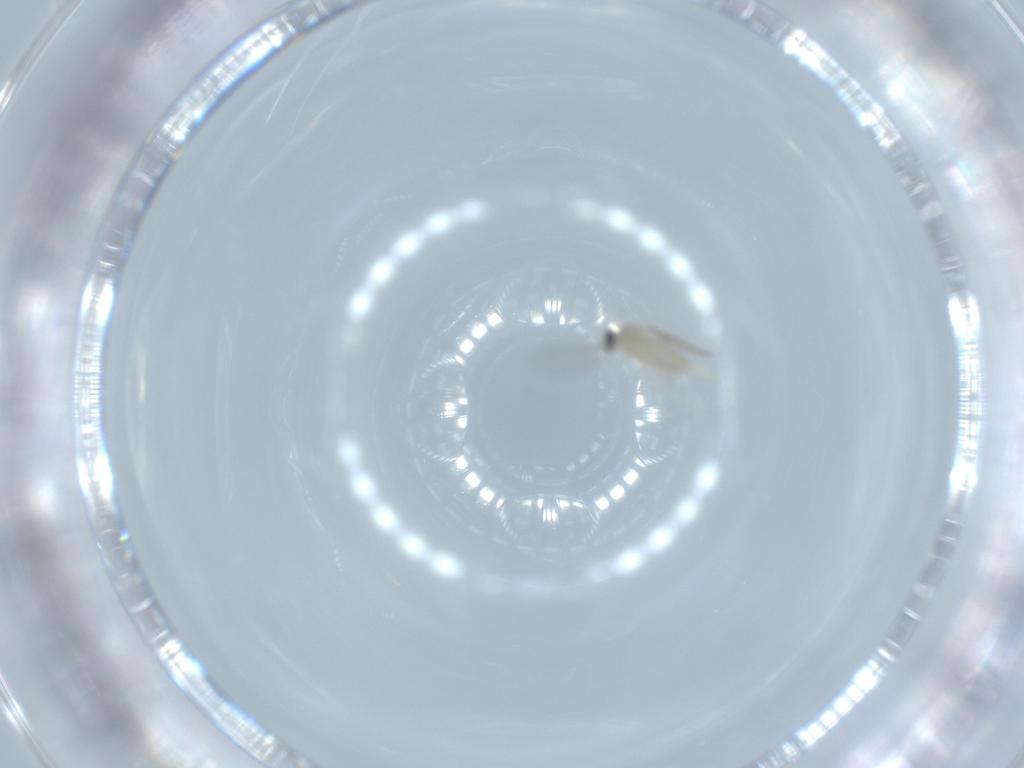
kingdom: Animalia
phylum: Arthropoda
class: Insecta
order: Diptera
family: Cecidomyiidae
